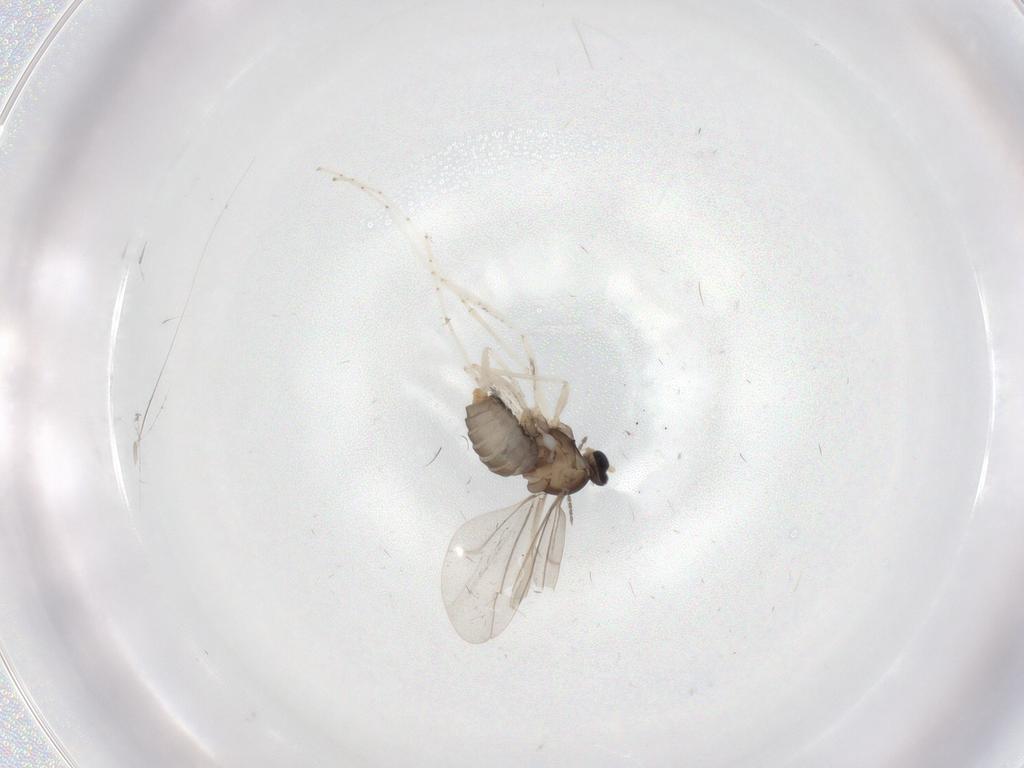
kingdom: Animalia
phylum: Arthropoda
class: Insecta
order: Diptera
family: Cecidomyiidae
